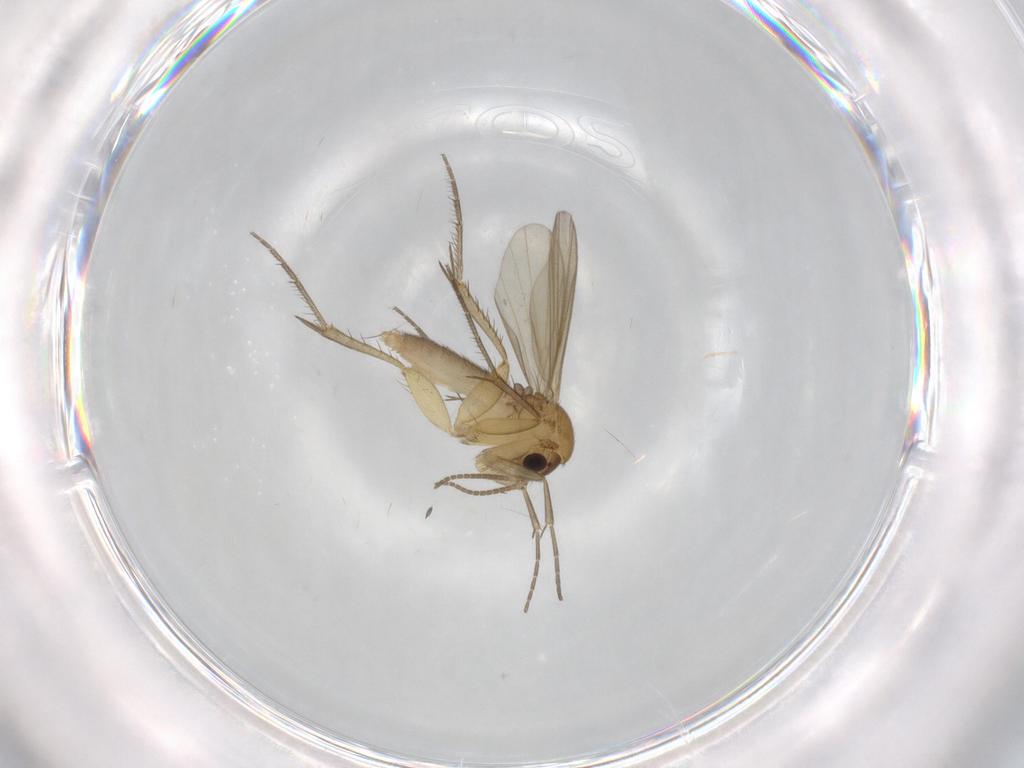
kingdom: Animalia
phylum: Arthropoda
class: Insecta
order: Diptera
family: Mycetophilidae
